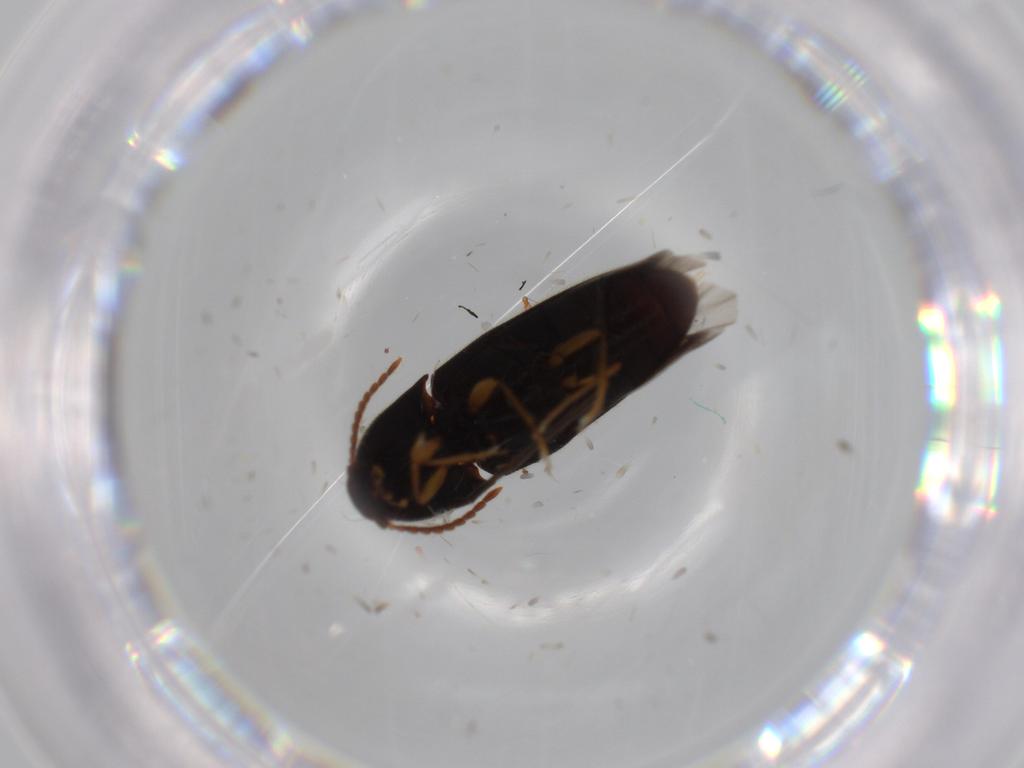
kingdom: Animalia
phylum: Arthropoda
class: Insecta
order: Coleoptera
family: Elateridae
